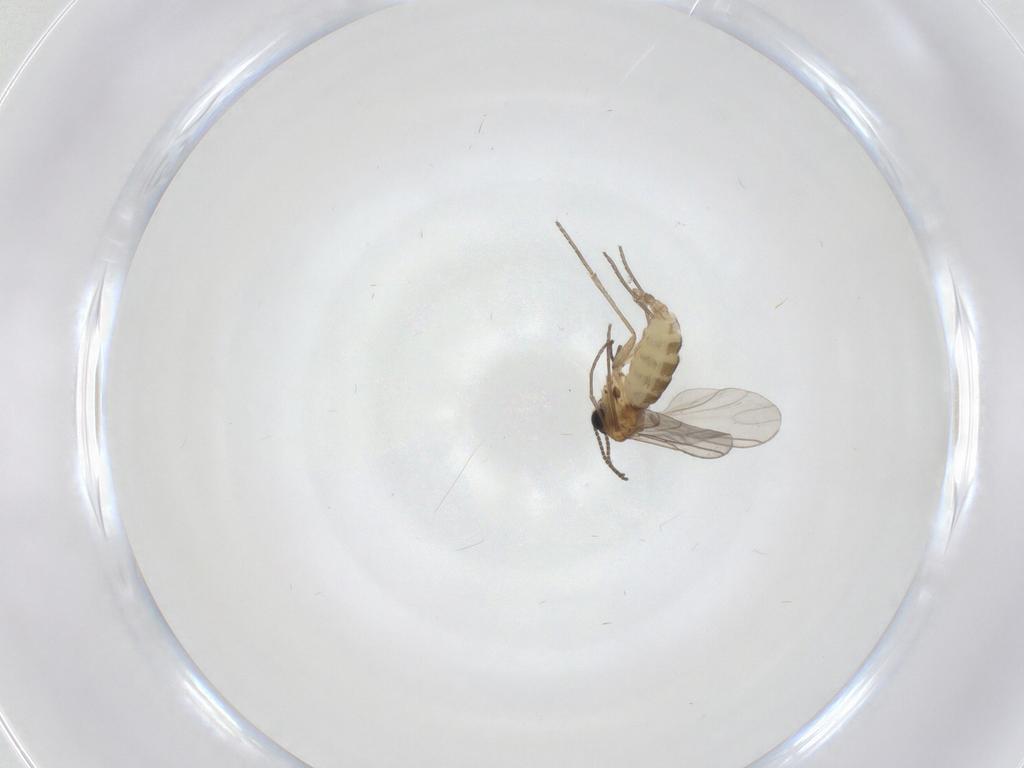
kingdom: Animalia
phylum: Arthropoda
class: Insecta
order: Diptera
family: Sciaridae
